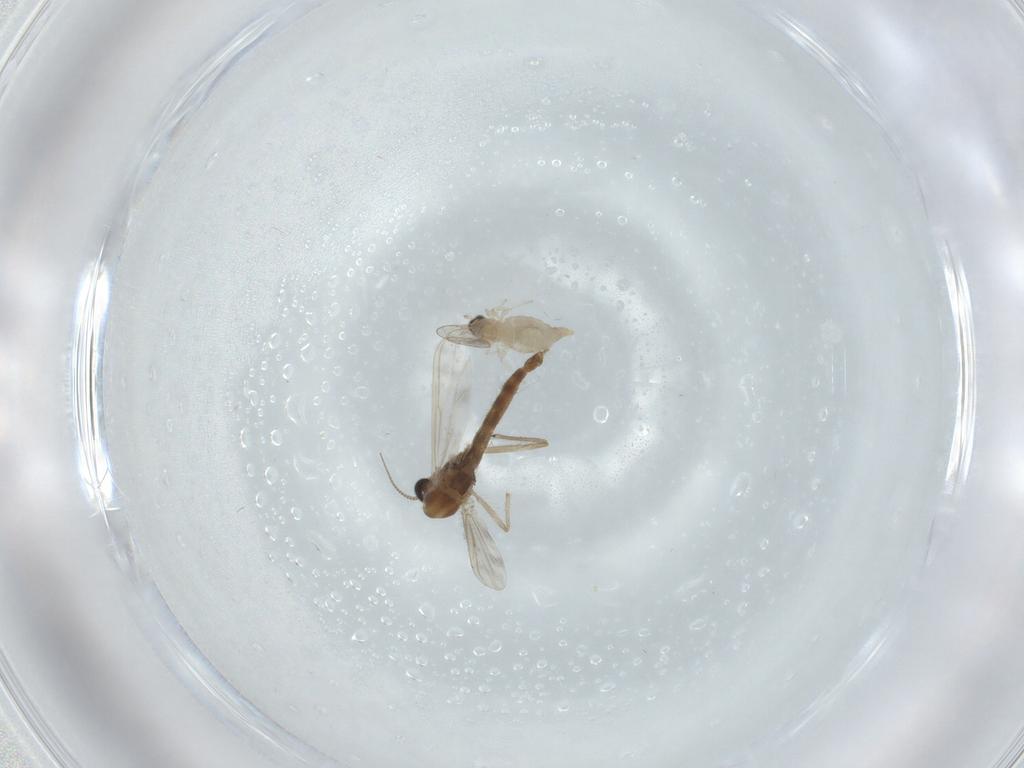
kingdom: Animalia
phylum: Arthropoda
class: Insecta
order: Diptera
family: Chironomidae
